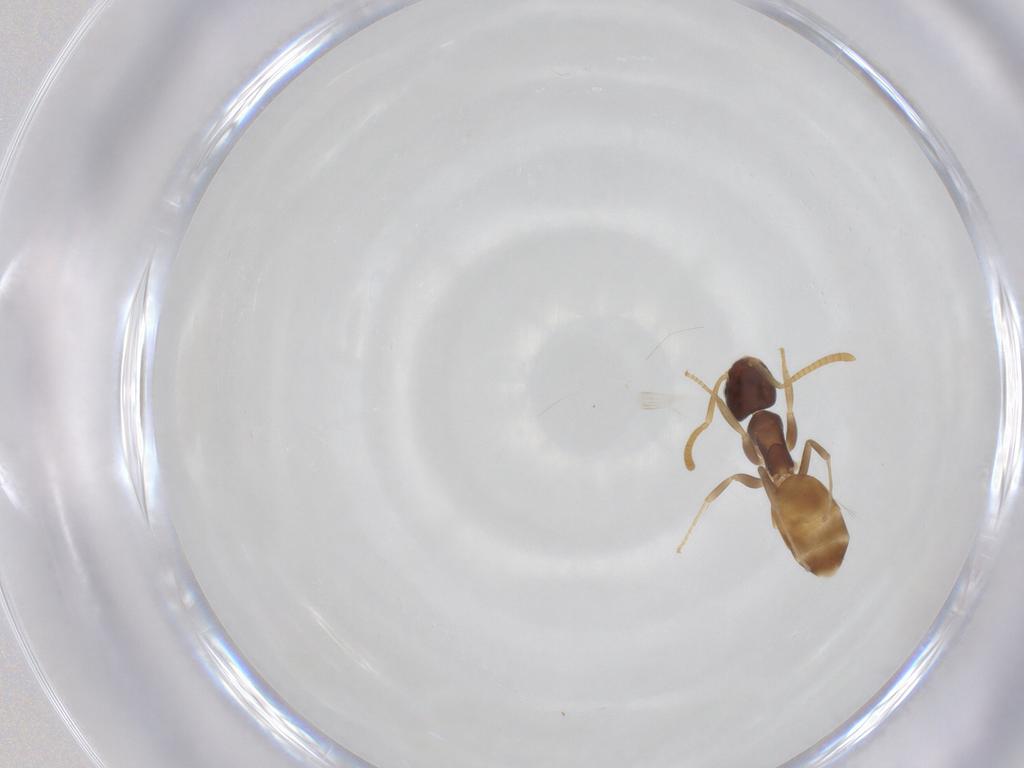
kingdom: Animalia
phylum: Arthropoda
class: Insecta
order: Hymenoptera
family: Formicidae
